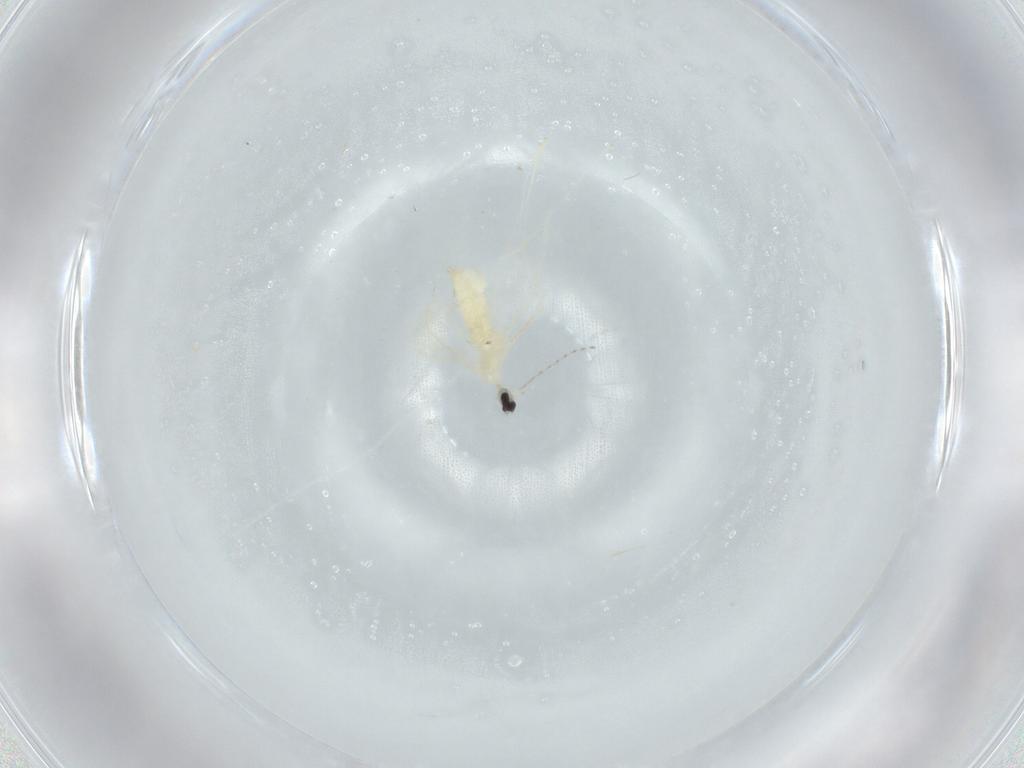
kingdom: Animalia
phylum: Arthropoda
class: Insecta
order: Diptera
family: Cecidomyiidae
